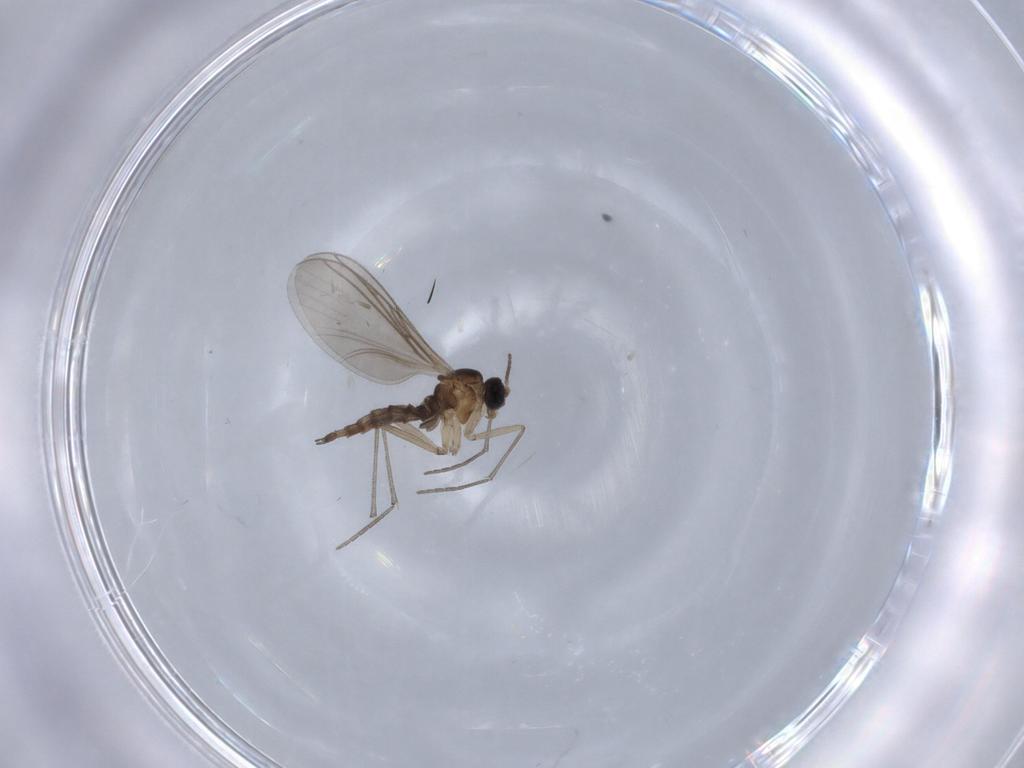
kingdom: Animalia
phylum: Arthropoda
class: Insecta
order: Diptera
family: Sciaridae
